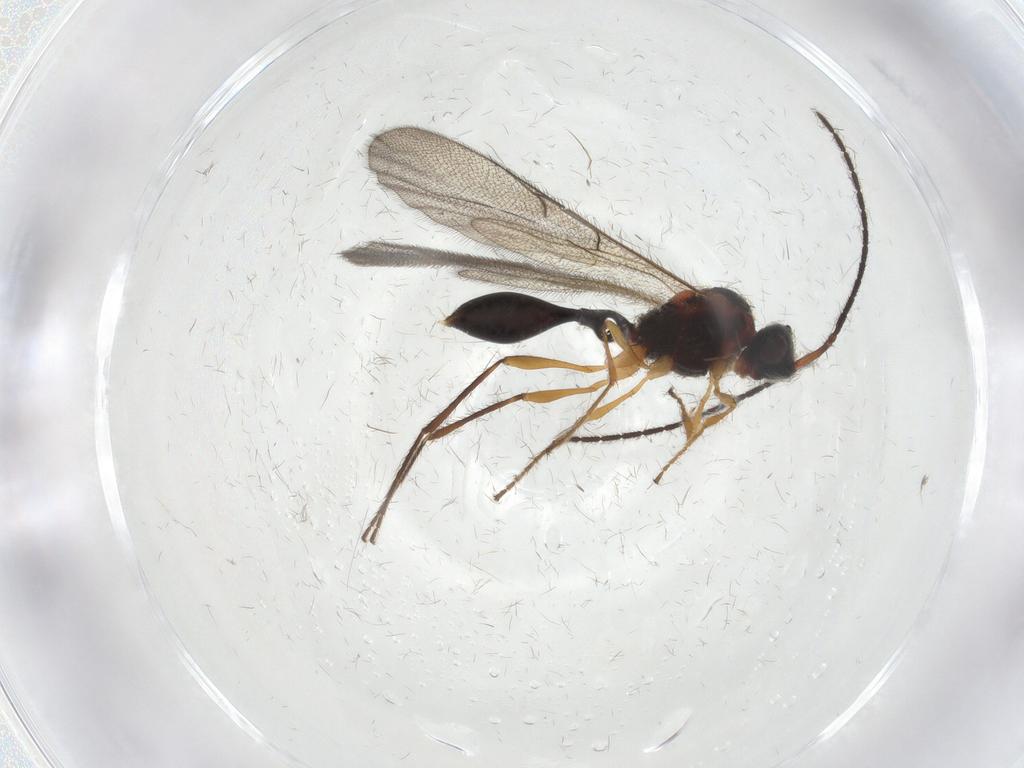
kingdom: Animalia
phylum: Arthropoda
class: Insecta
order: Hymenoptera
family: Diapriidae
